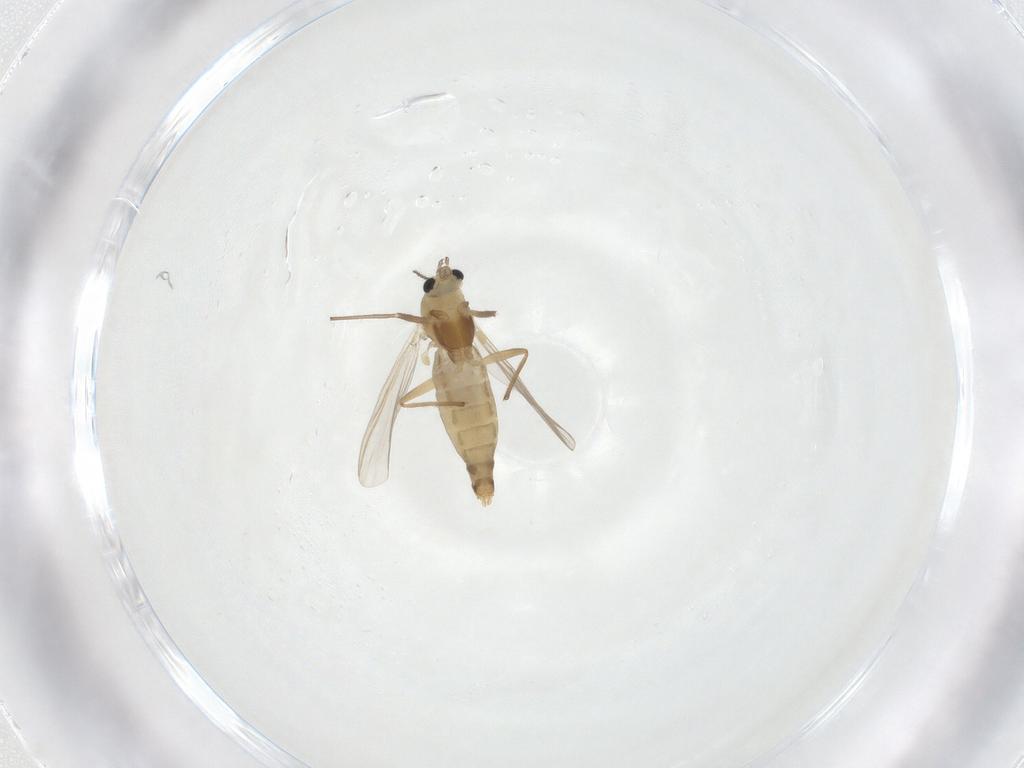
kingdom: Animalia
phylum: Arthropoda
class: Insecta
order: Diptera
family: Chironomidae
